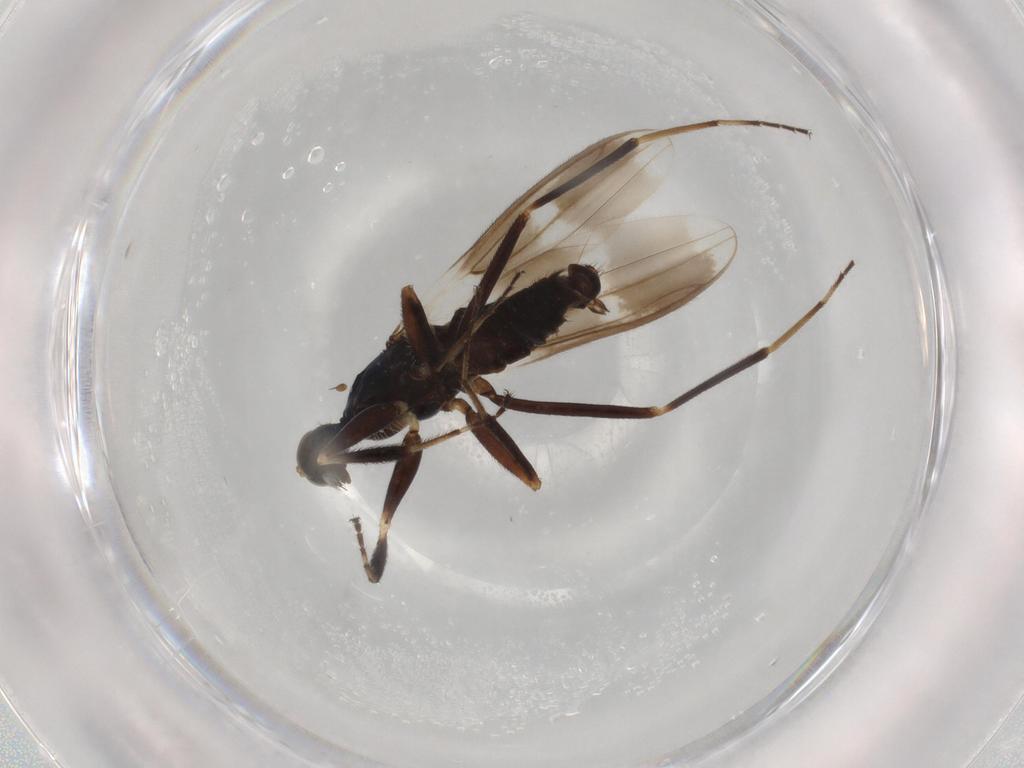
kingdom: Animalia
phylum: Arthropoda
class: Insecta
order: Diptera
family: Hybotidae
